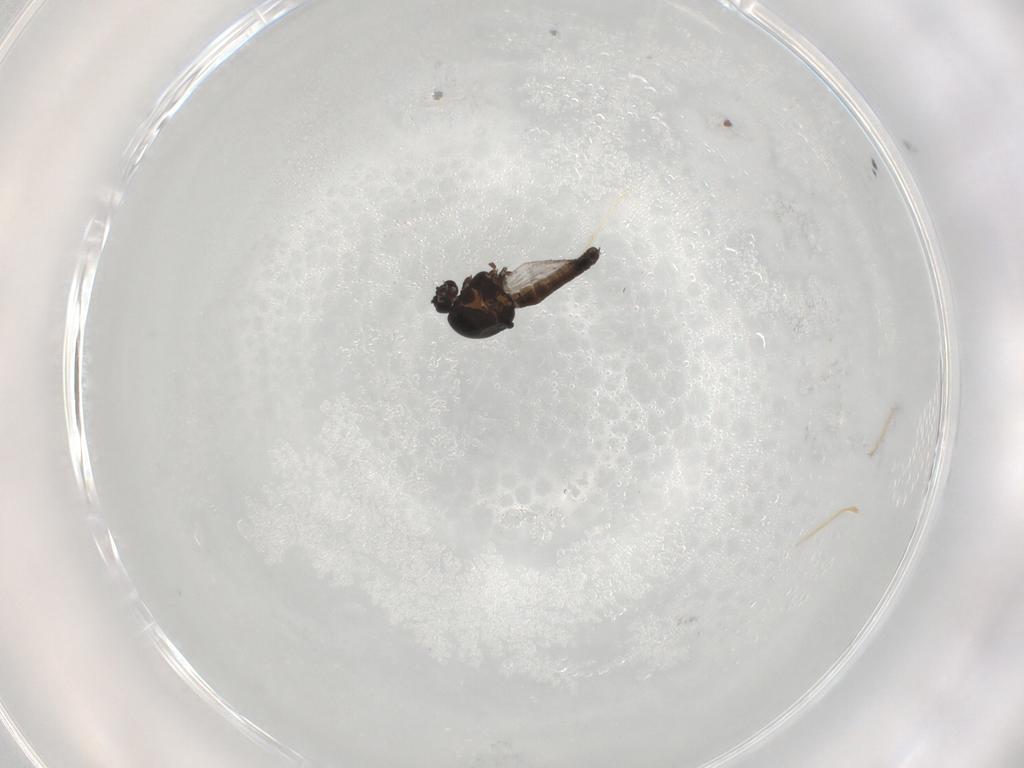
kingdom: Animalia
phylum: Arthropoda
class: Insecta
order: Diptera
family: Ceratopogonidae
